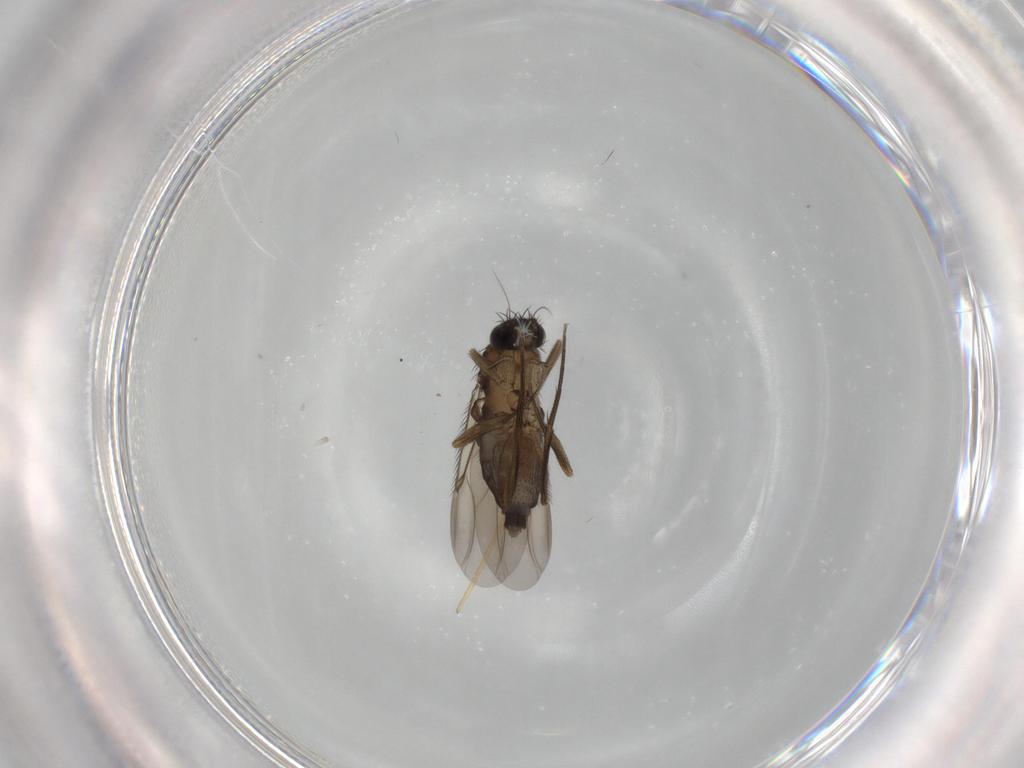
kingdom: Animalia
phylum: Arthropoda
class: Insecta
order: Diptera
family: Phoridae
